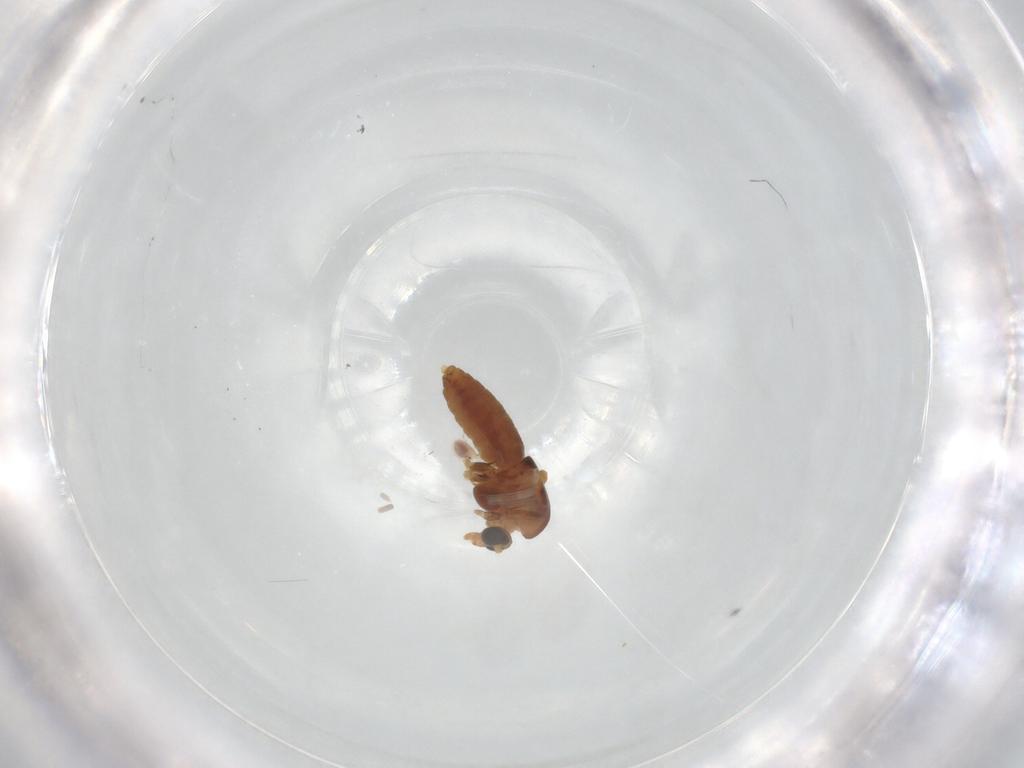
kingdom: Animalia
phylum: Arthropoda
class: Insecta
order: Diptera
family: Chironomidae
